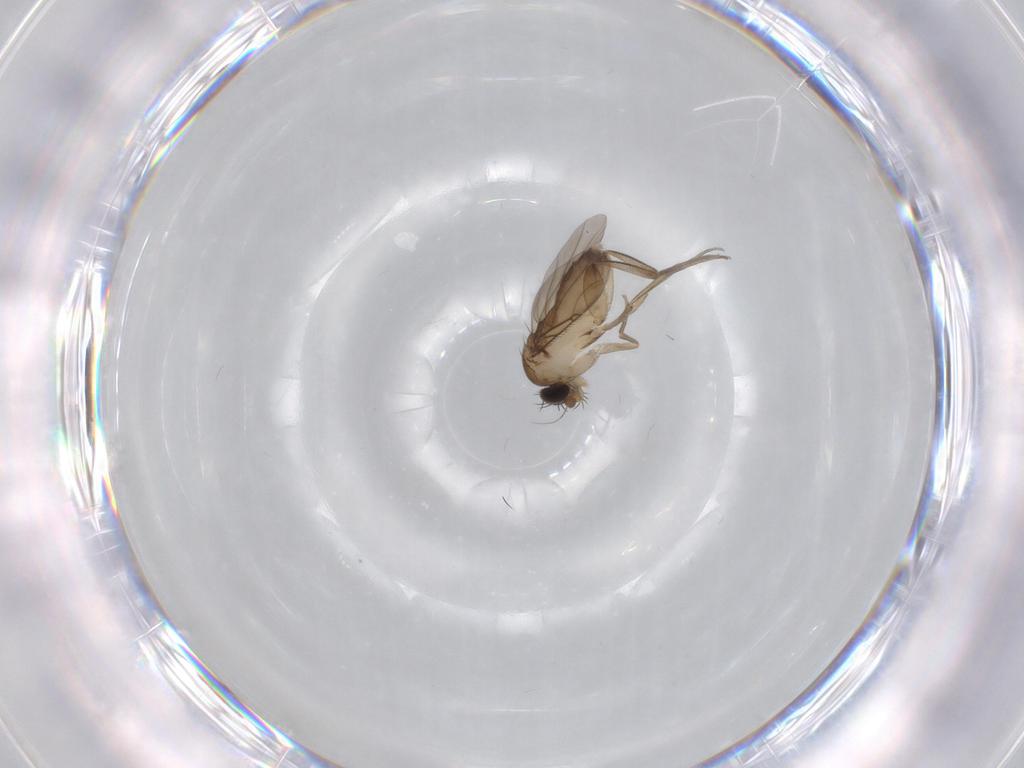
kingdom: Animalia
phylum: Arthropoda
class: Insecta
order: Diptera
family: Phoridae
